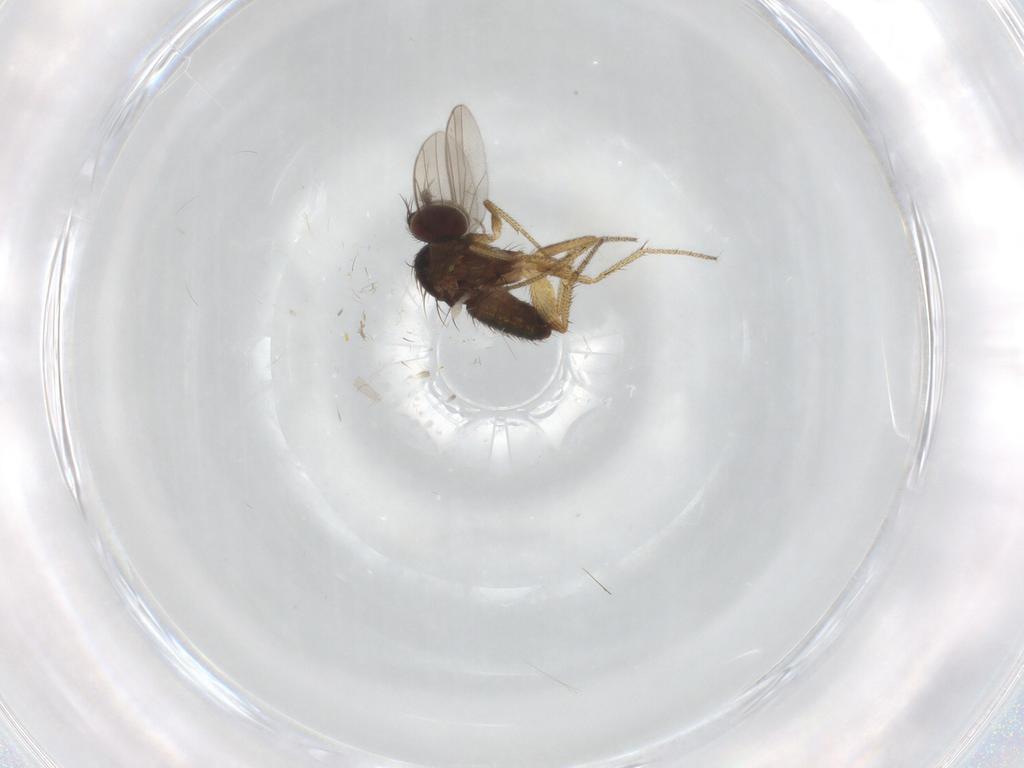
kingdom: Animalia
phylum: Arthropoda
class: Insecta
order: Diptera
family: Dolichopodidae
